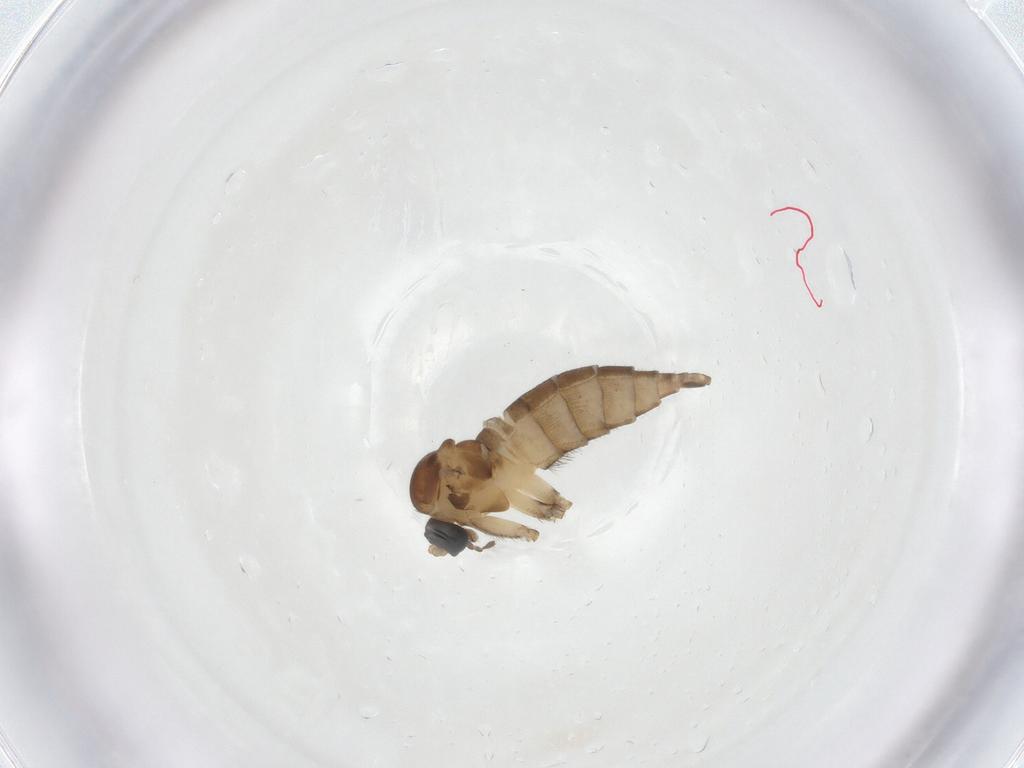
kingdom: Animalia
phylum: Arthropoda
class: Insecta
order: Diptera
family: Sciaridae
